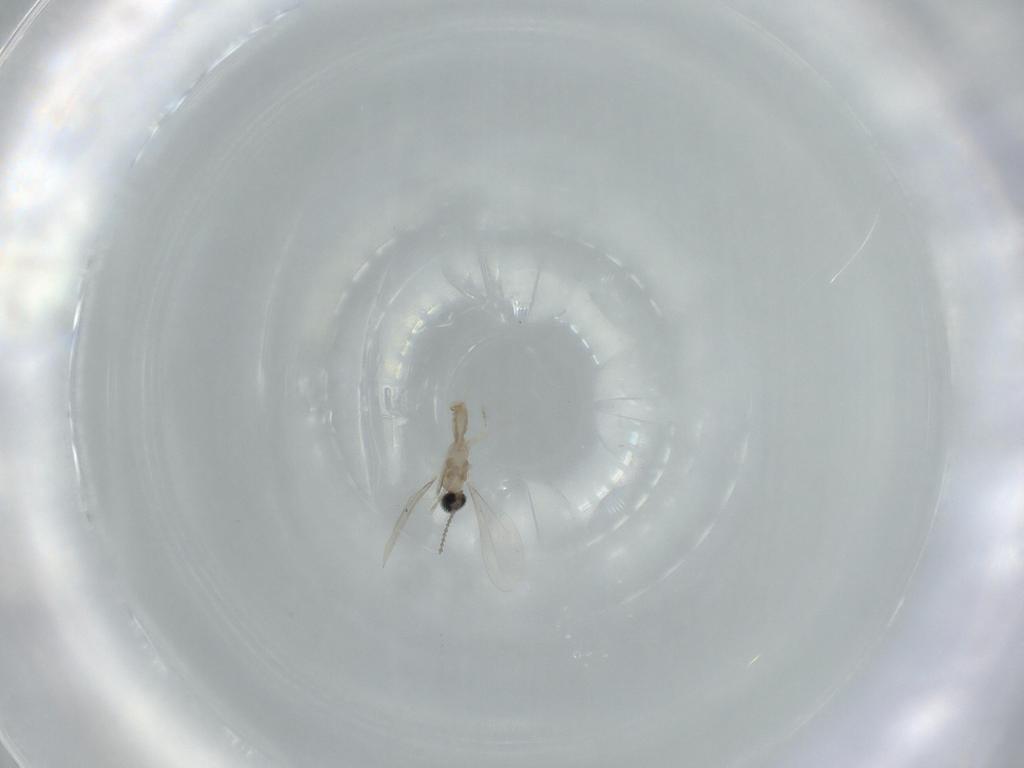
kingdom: Animalia
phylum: Arthropoda
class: Insecta
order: Diptera
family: Cecidomyiidae
